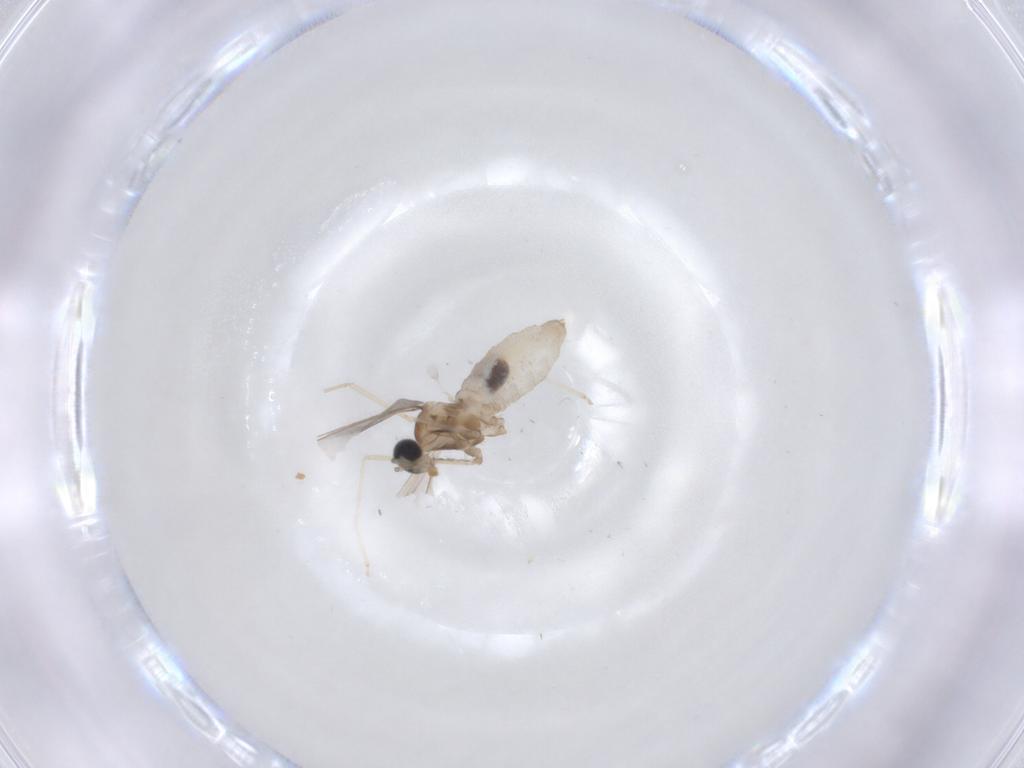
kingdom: Animalia
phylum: Arthropoda
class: Insecta
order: Diptera
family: Cecidomyiidae
